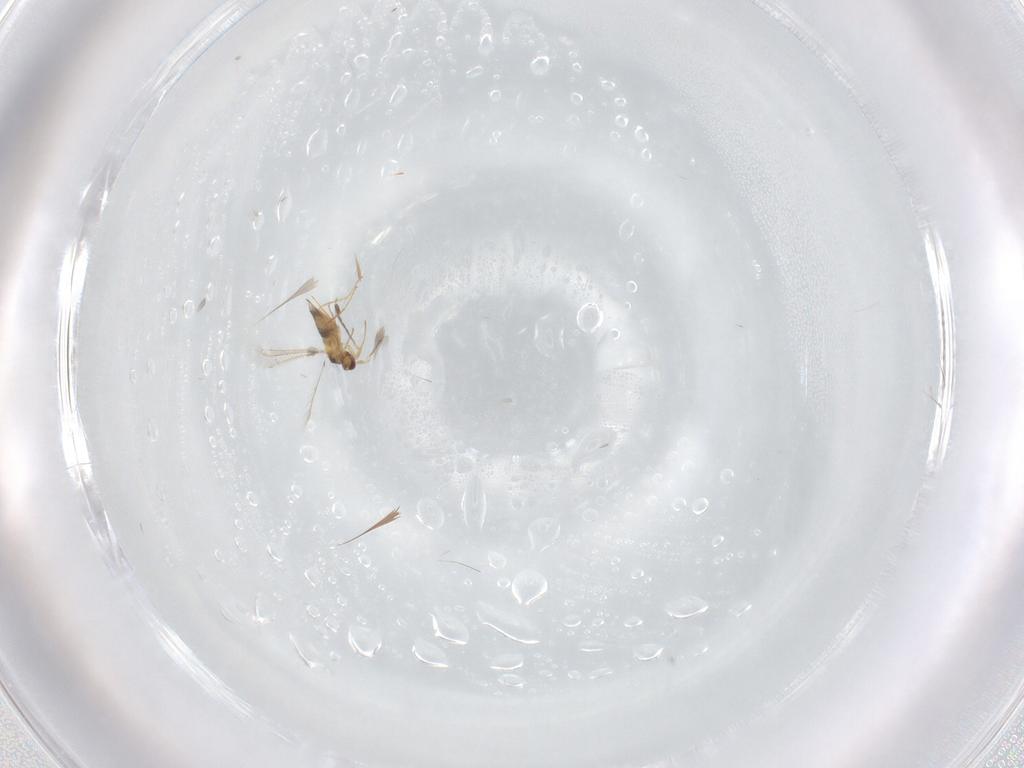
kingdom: Animalia
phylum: Arthropoda
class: Insecta
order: Hymenoptera
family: Mymaridae
